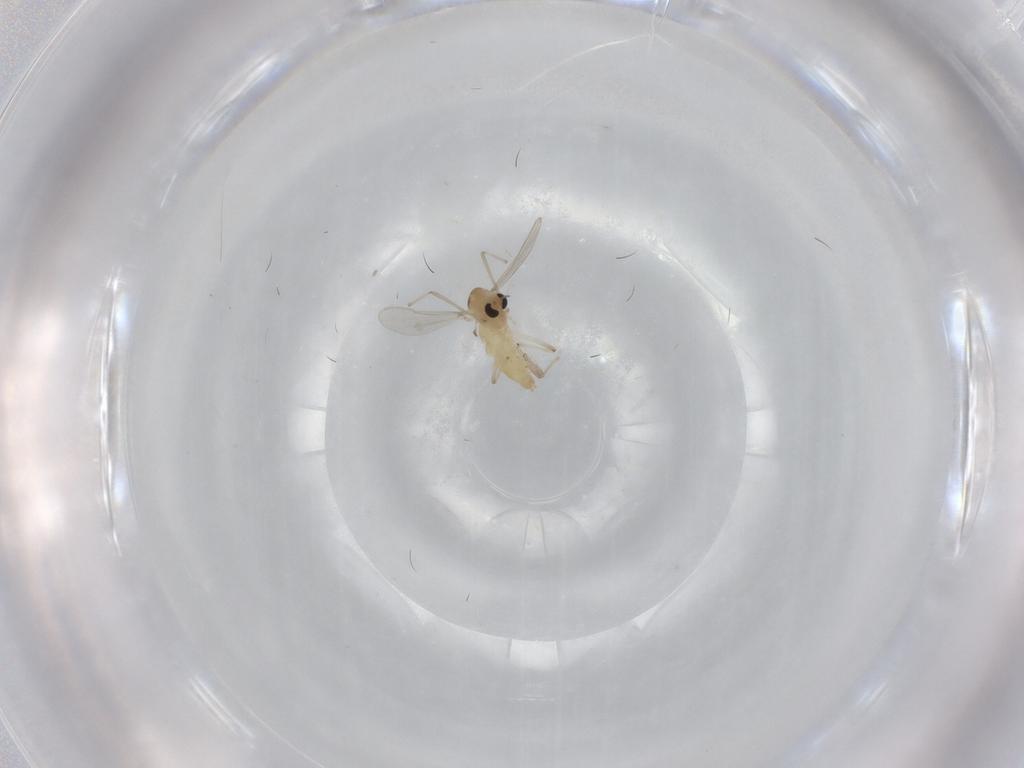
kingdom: Animalia
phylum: Arthropoda
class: Insecta
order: Diptera
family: Chironomidae
